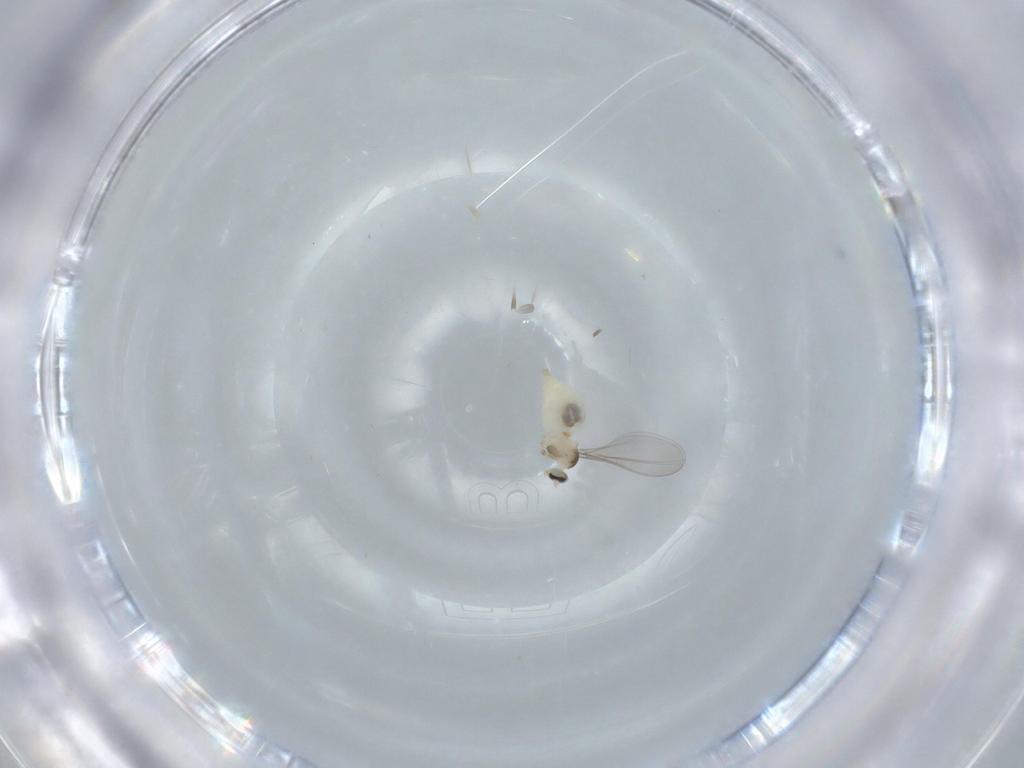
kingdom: Animalia
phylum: Arthropoda
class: Insecta
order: Diptera
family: Cecidomyiidae
